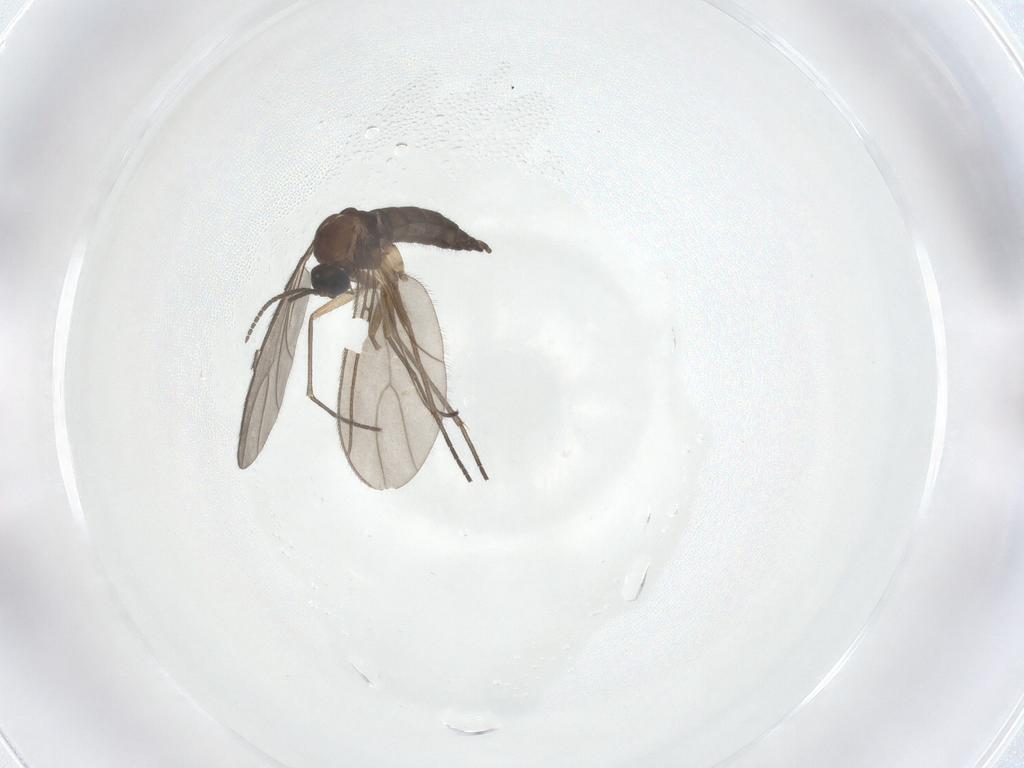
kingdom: Animalia
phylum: Arthropoda
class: Insecta
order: Diptera
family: Sciaridae
